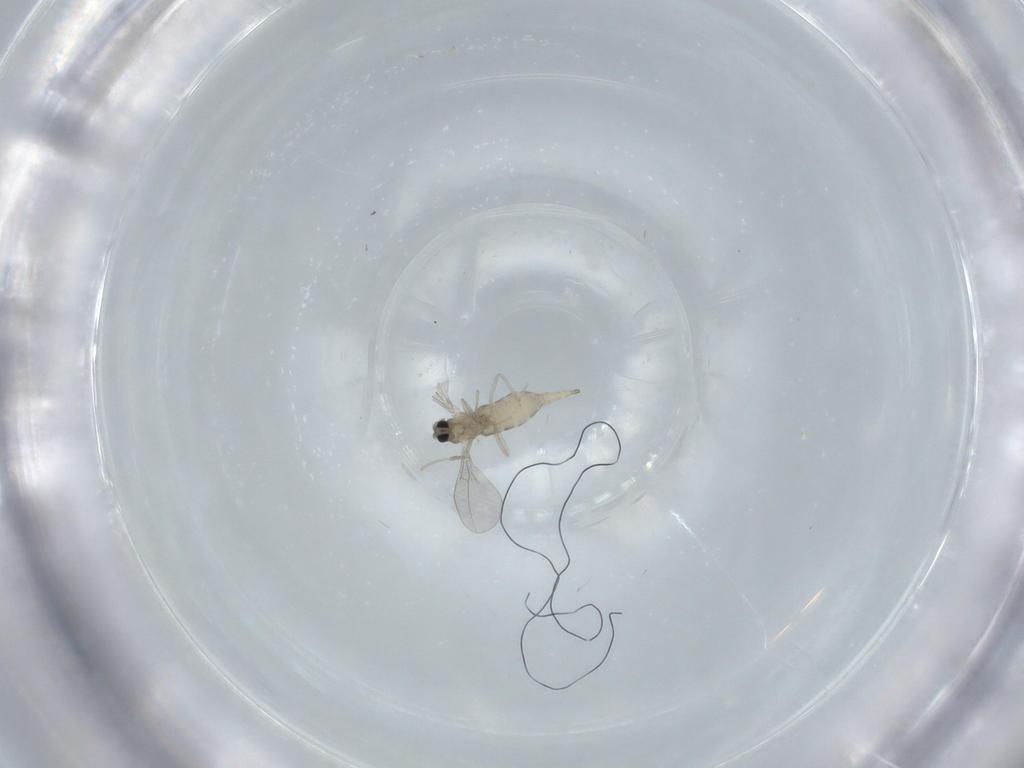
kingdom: Animalia
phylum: Arthropoda
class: Insecta
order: Diptera
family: Cecidomyiidae
